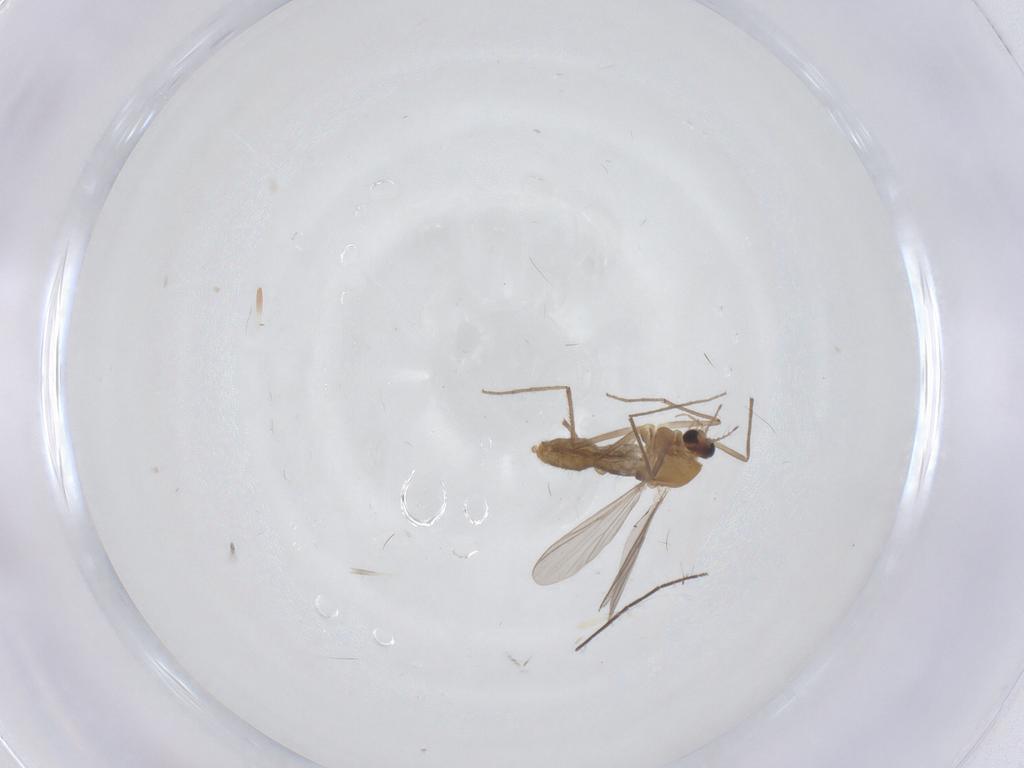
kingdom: Animalia
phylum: Arthropoda
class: Insecta
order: Diptera
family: Chironomidae
